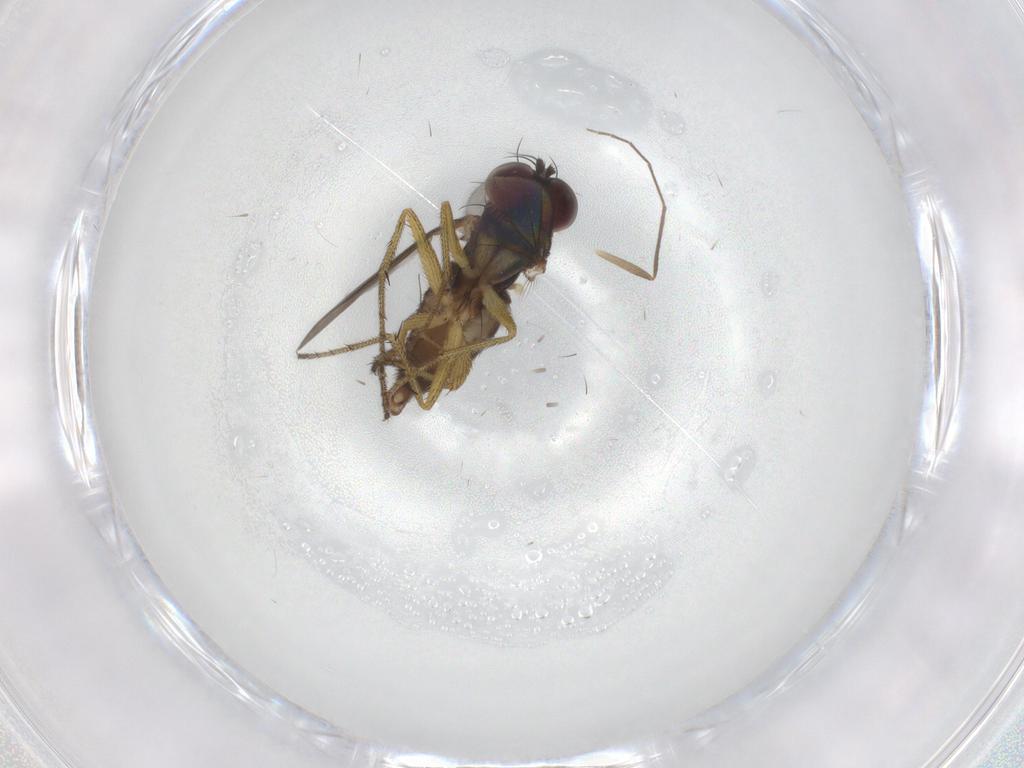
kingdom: Animalia
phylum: Arthropoda
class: Insecta
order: Diptera
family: Dolichopodidae
